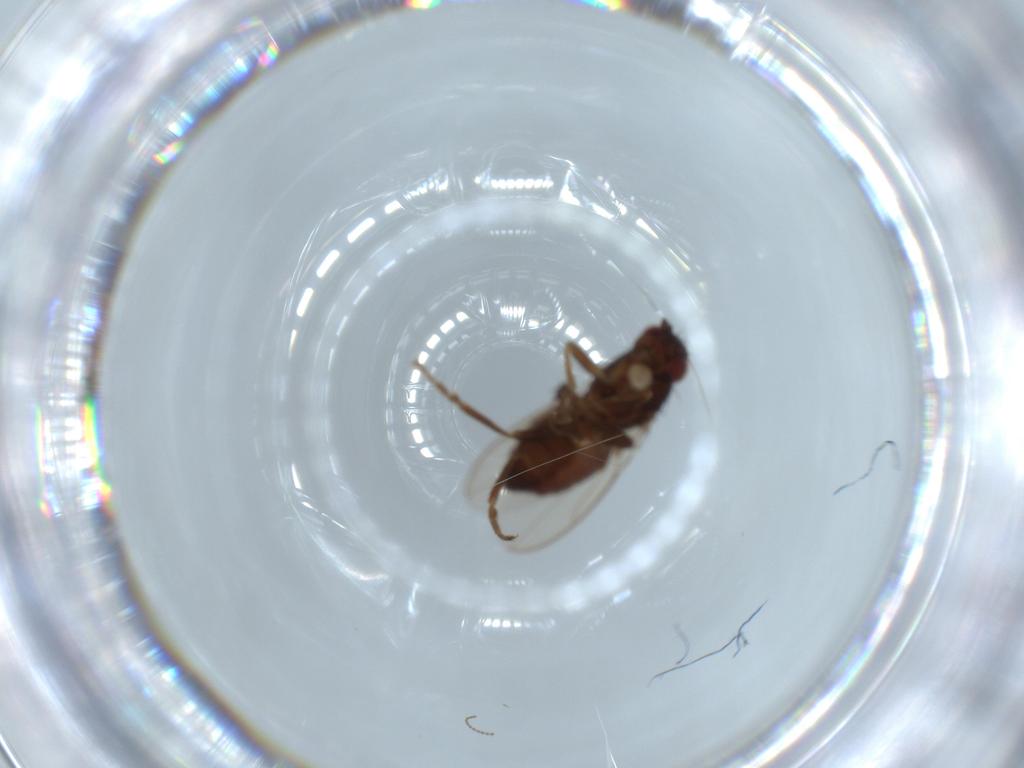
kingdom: Animalia
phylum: Arthropoda
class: Insecta
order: Diptera
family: Sphaeroceridae
